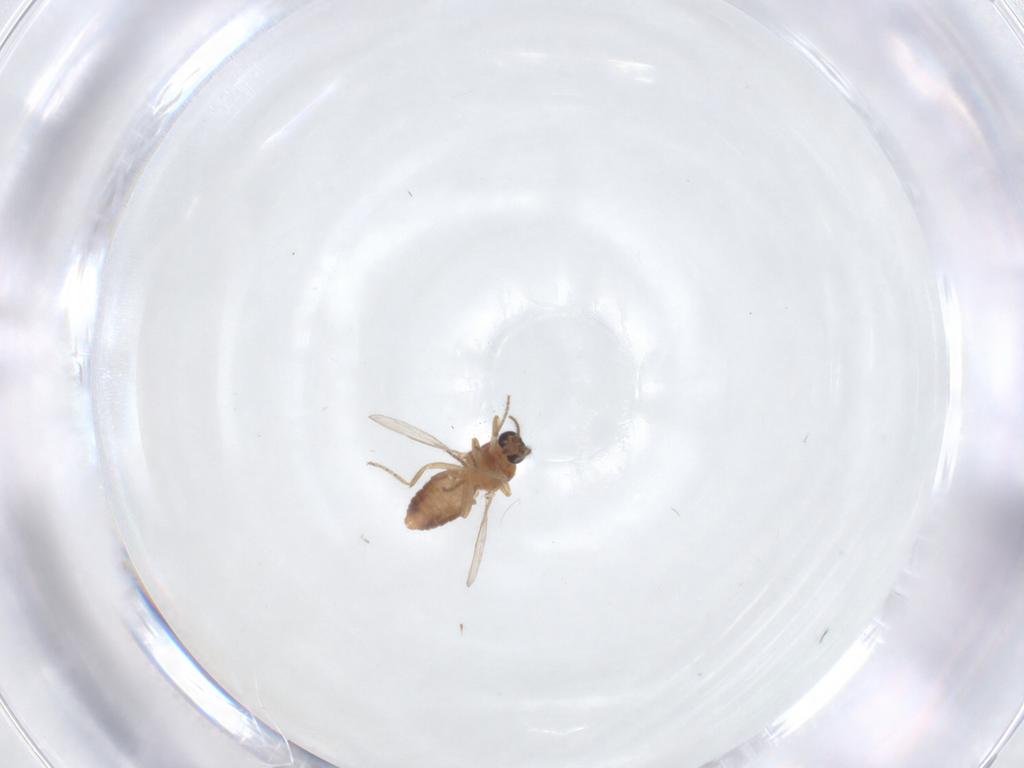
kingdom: Animalia
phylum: Arthropoda
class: Insecta
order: Diptera
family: Ceratopogonidae
